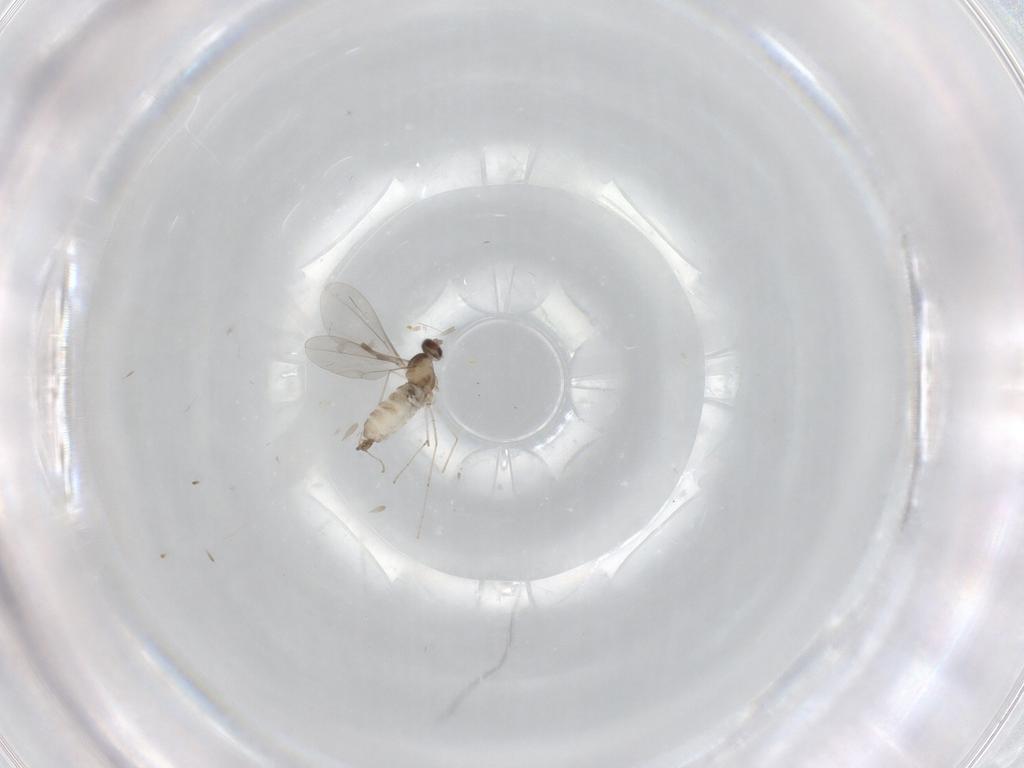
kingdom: Animalia
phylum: Arthropoda
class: Insecta
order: Diptera
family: Cecidomyiidae
